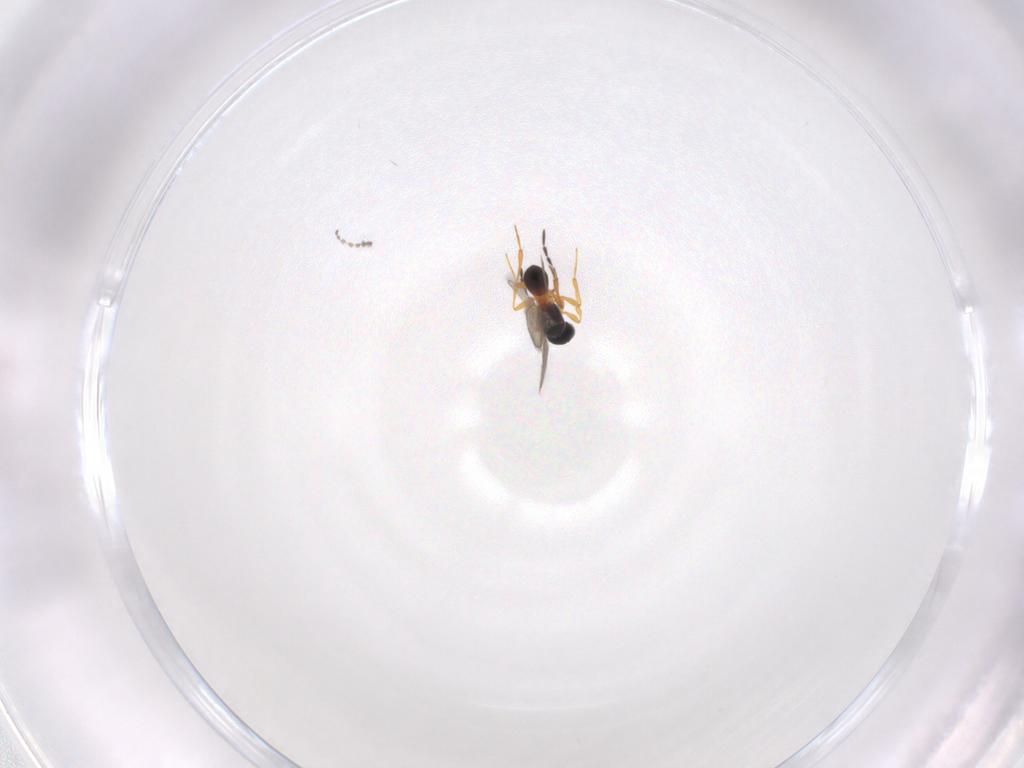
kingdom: Animalia
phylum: Arthropoda
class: Insecta
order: Hymenoptera
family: Platygastridae
